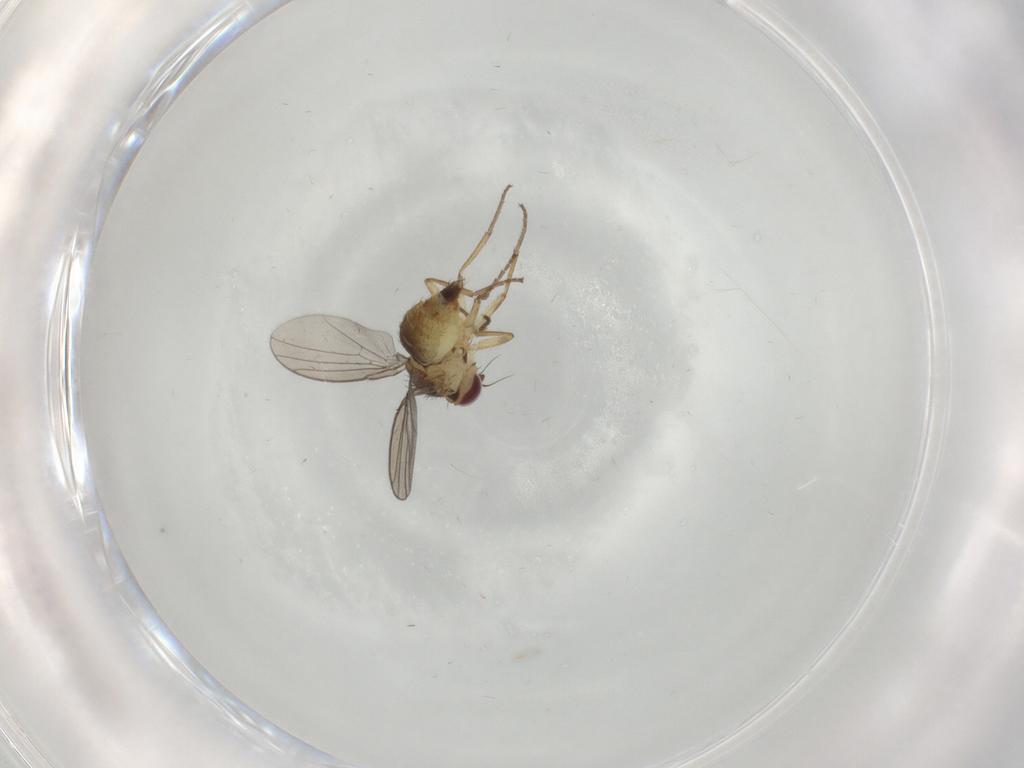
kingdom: Animalia
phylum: Arthropoda
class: Insecta
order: Diptera
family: Agromyzidae
